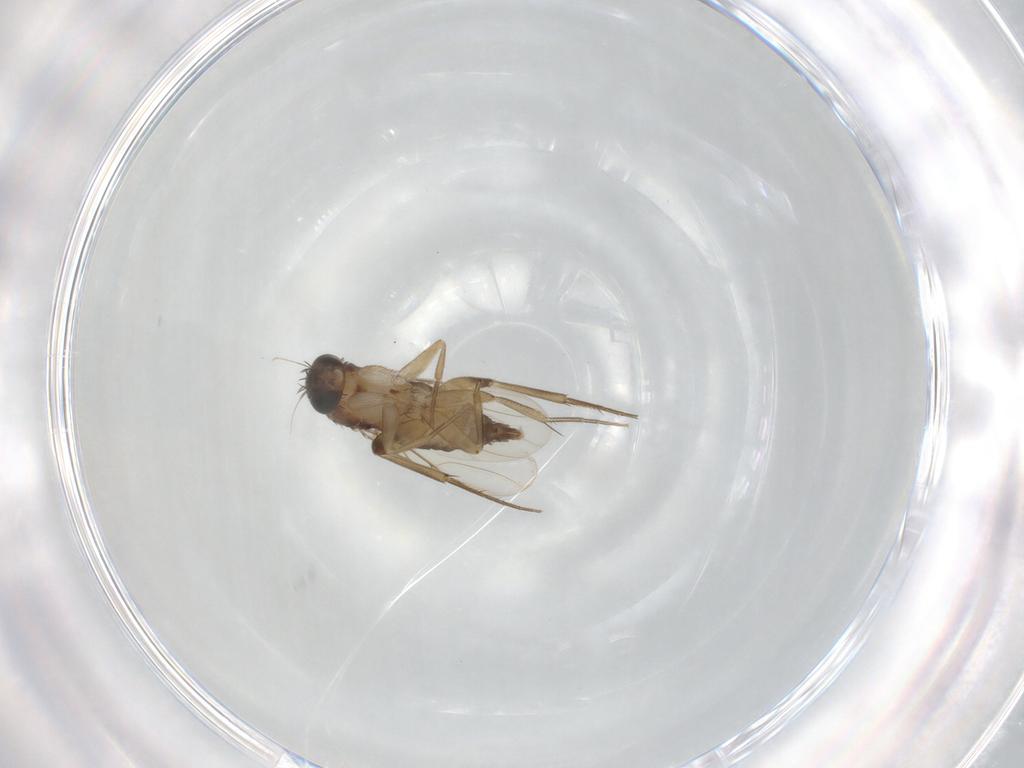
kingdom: Animalia
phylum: Arthropoda
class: Insecta
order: Diptera
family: Phoridae
